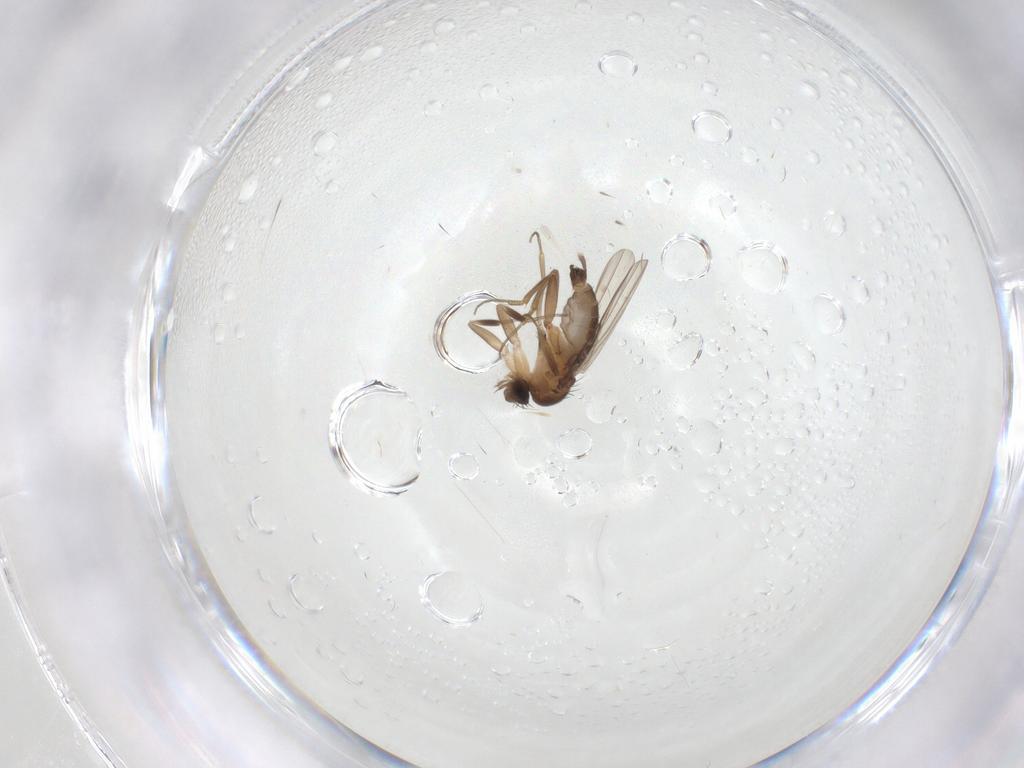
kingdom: Animalia
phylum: Arthropoda
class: Insecta
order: Diptera
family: Phoridae
